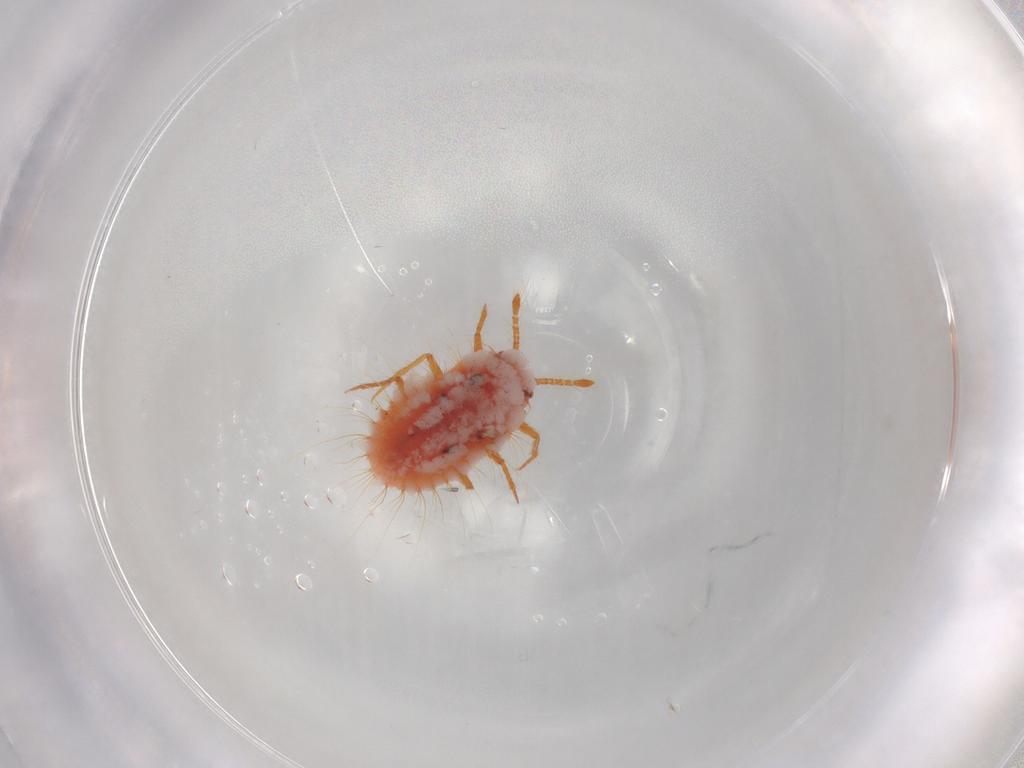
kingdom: Animalia
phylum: Arthropoda
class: Insecta
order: Hemiptera
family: Coccoidea_incertae_sedis
